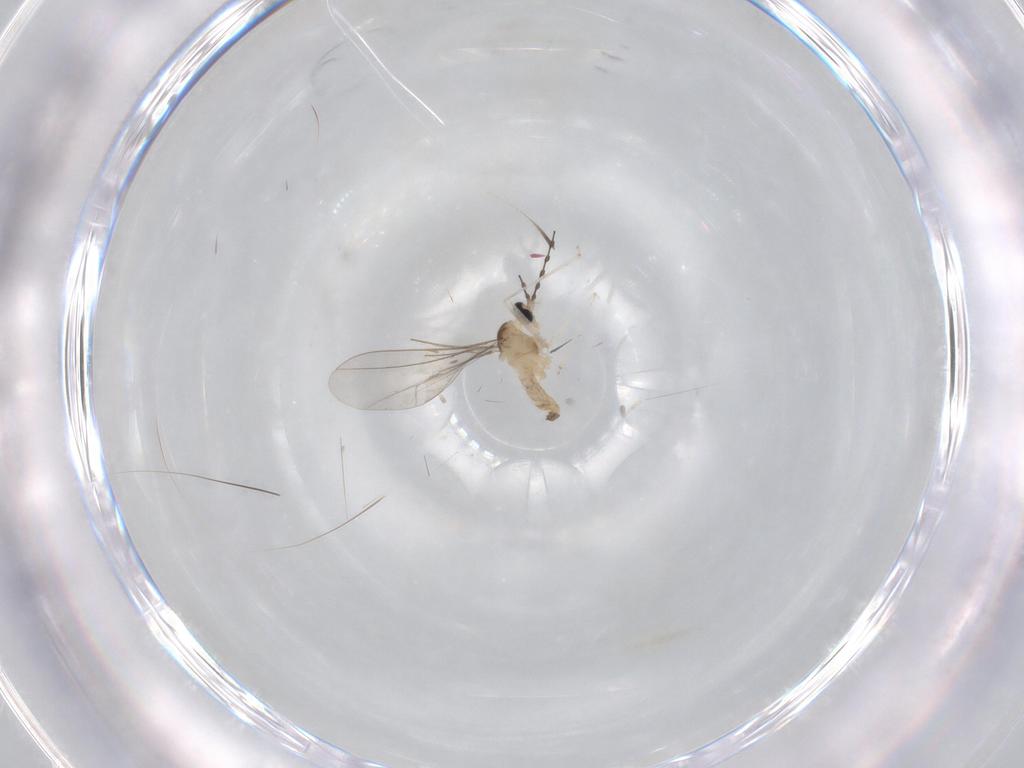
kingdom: Animalia
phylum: Arthropoda
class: Insecta
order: Diptera
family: Cecidomyiidae
